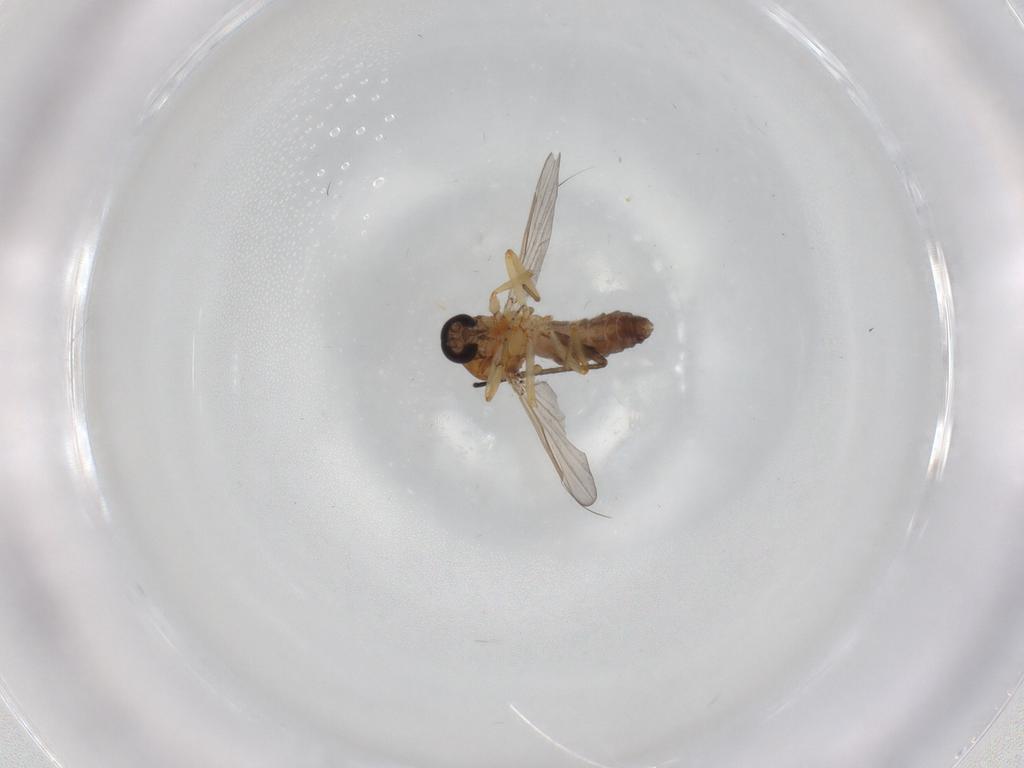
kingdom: Animalia
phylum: Arthropoda
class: Insecta
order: Diptera
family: Ceratopogonidae
